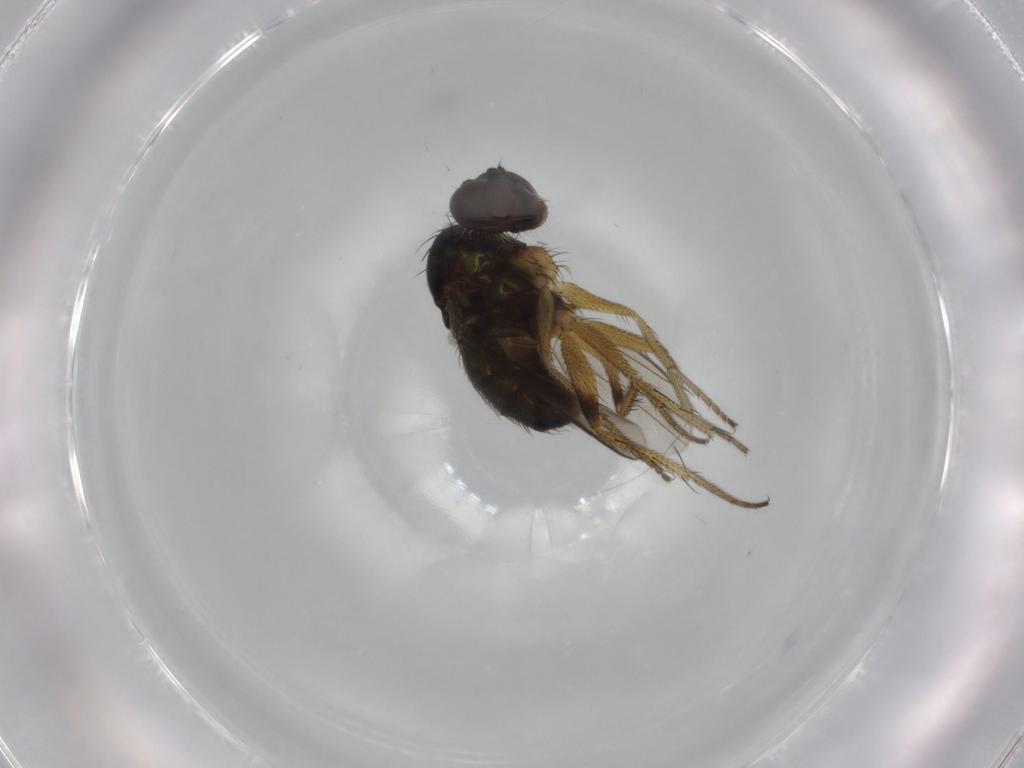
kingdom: Animalia
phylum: Arthropoda
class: Insecta
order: Diptera
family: Dolichopodidae
